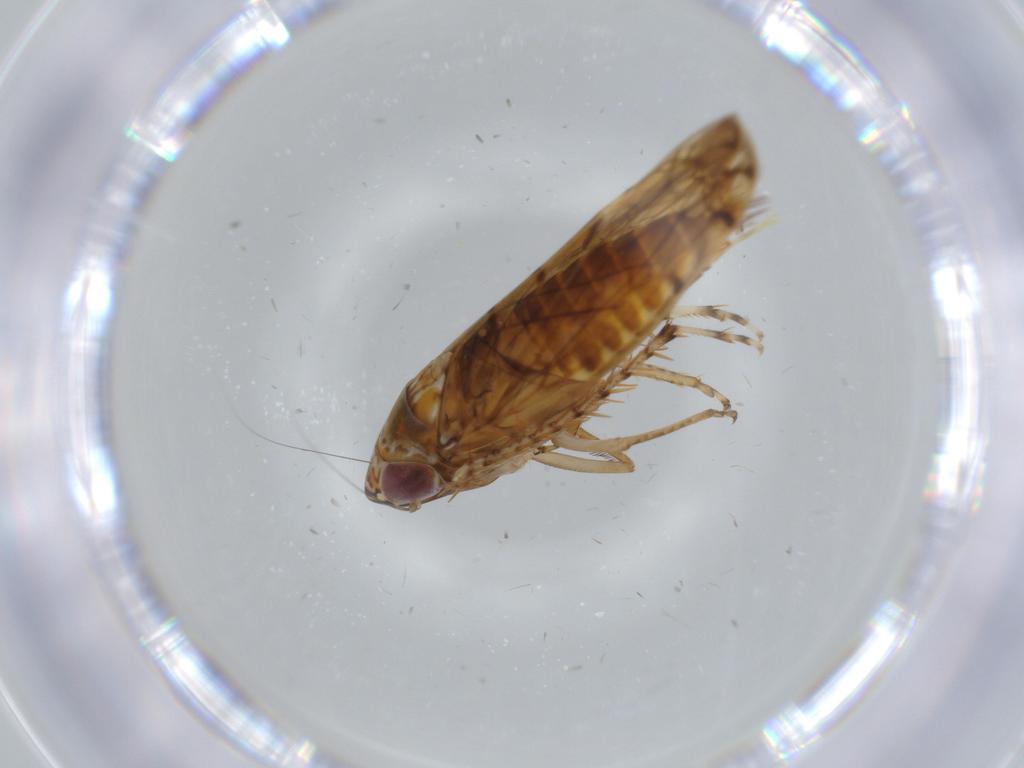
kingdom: Animalia
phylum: Arthropoda
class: Insecta
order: Hemiptera
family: Cicadellidae
